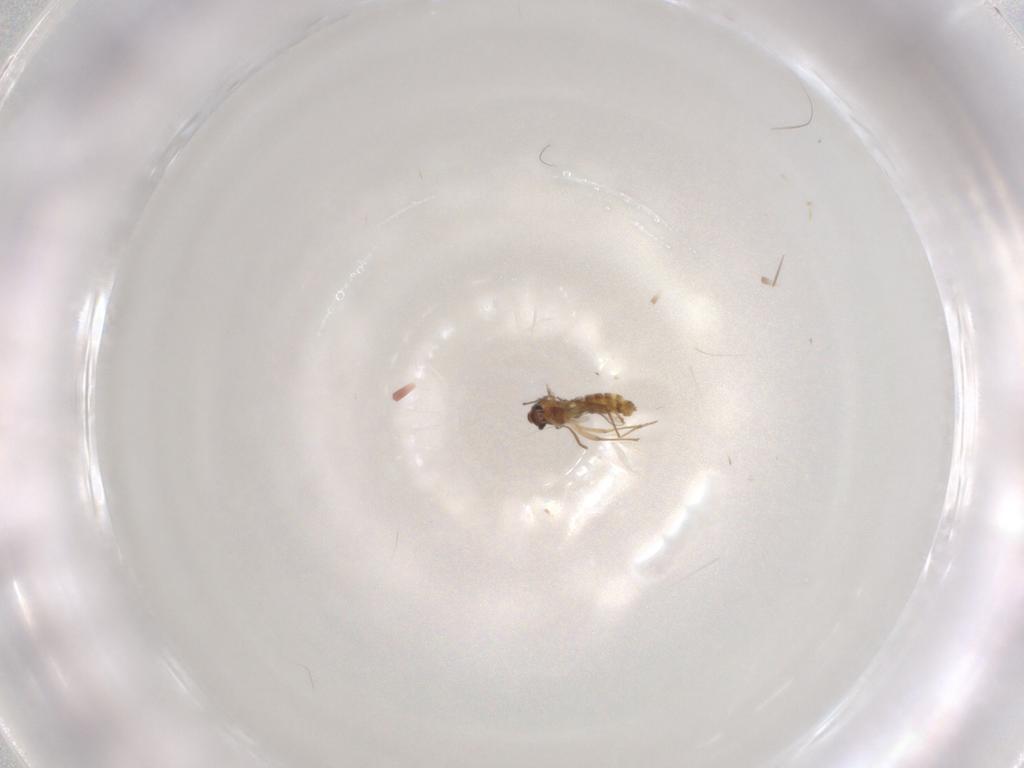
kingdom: Animalia
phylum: Arthropoda
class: Insecta
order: Diptera
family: Chironomidae
